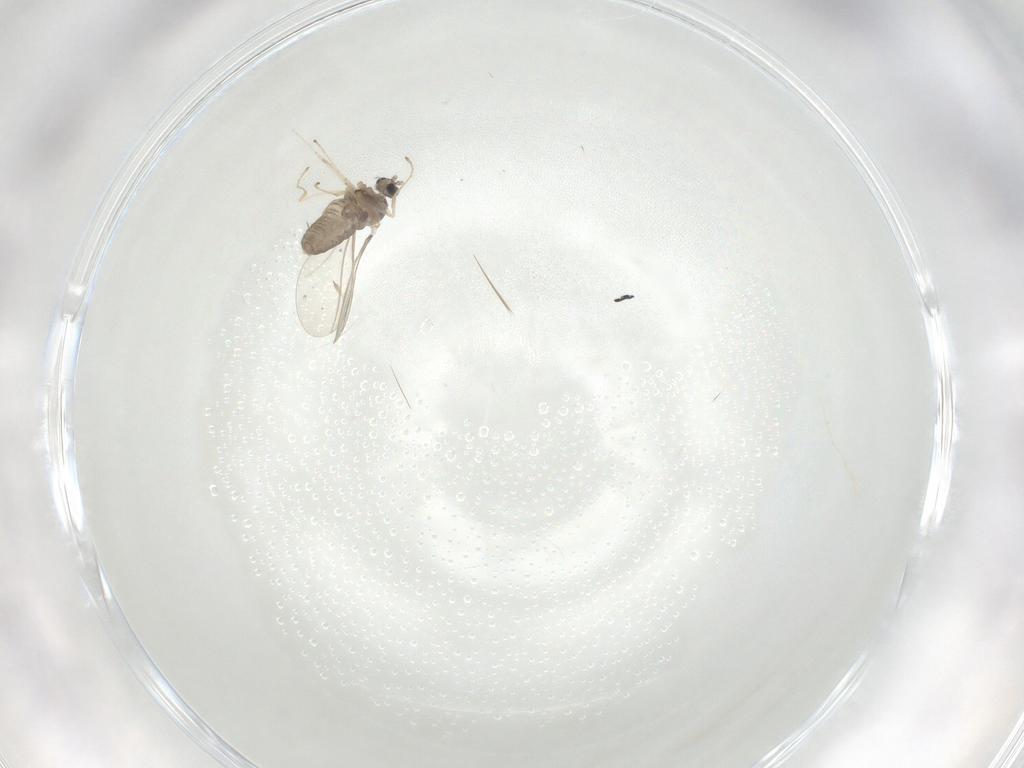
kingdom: Animalia
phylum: Arthropoda
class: Insecta
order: Diptera
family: Cecidomyiidae
